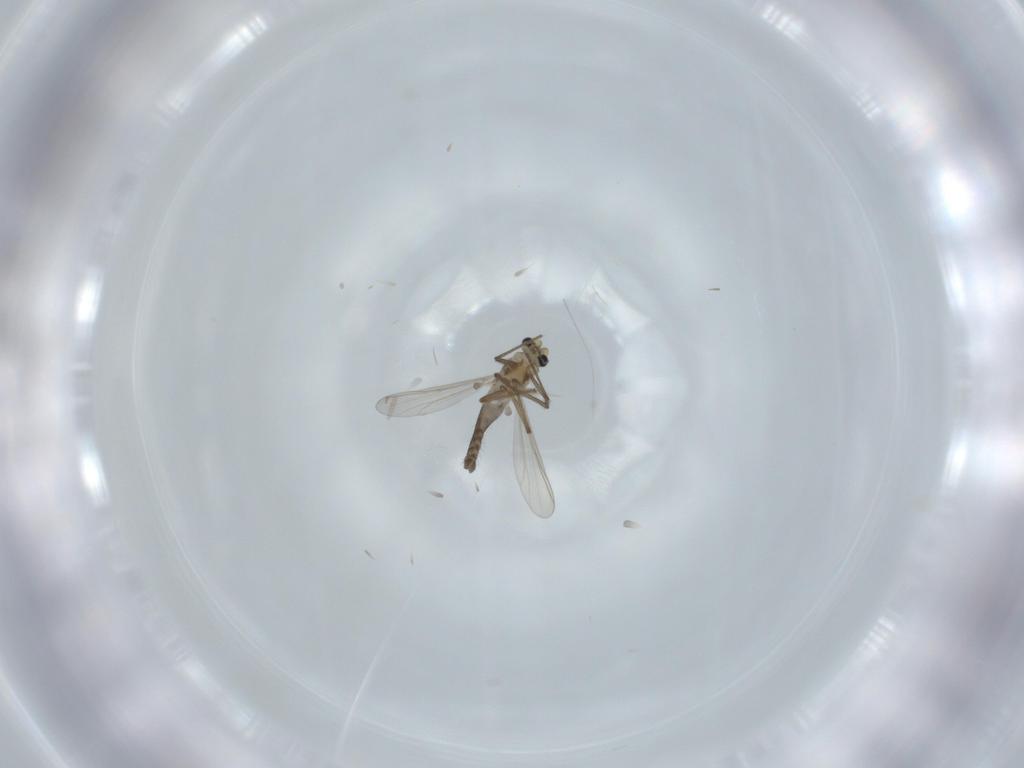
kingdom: Animalia
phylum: Arthropoda
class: Insecta
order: Diptera
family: Chironomidae
